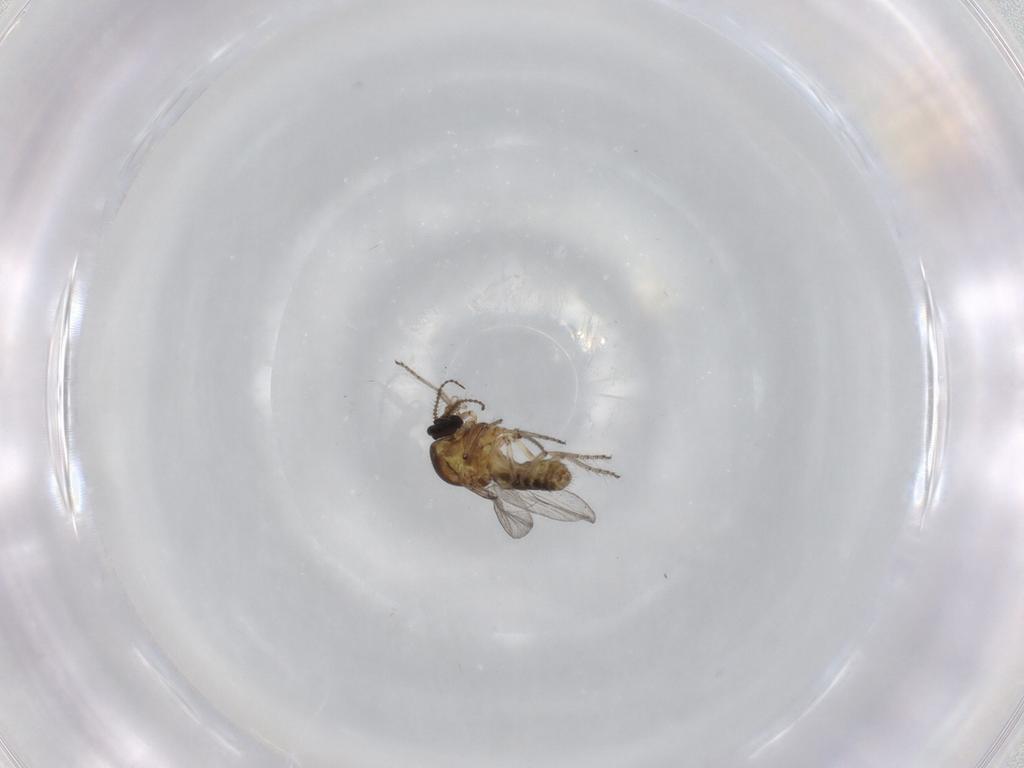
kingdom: Animalia
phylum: Arthropoda
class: Insecta
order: Diptera
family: Ceratopogonidae
